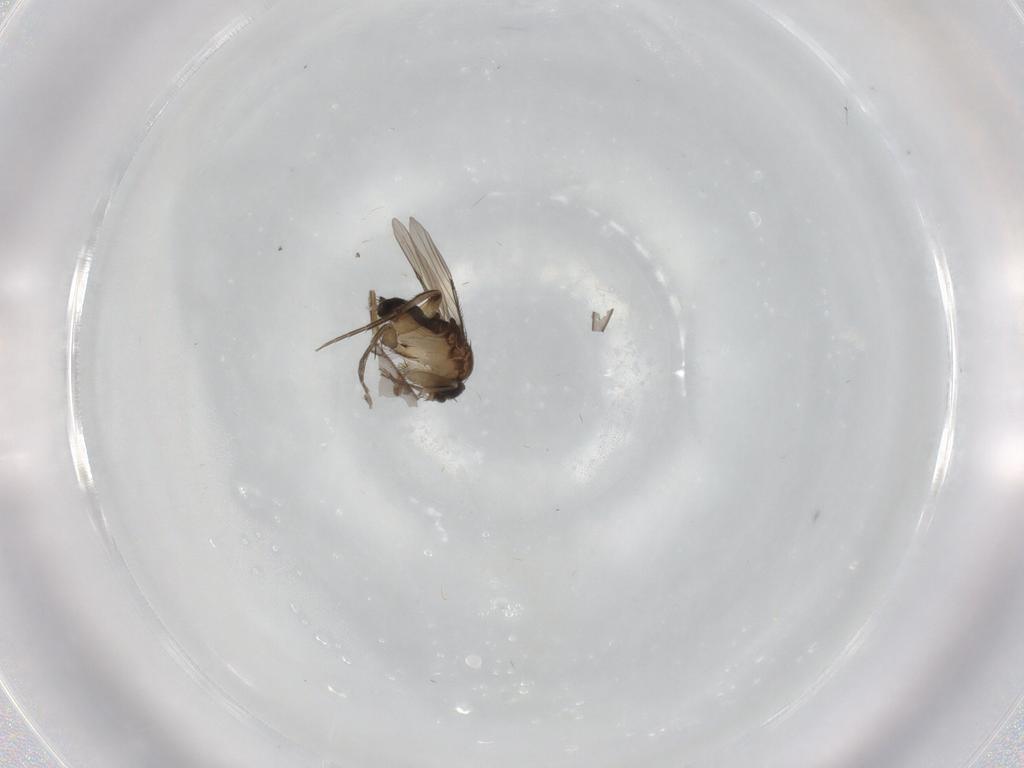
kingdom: Animalia
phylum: Arthropoda
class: Insecta
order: Diptera
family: Phoridae
